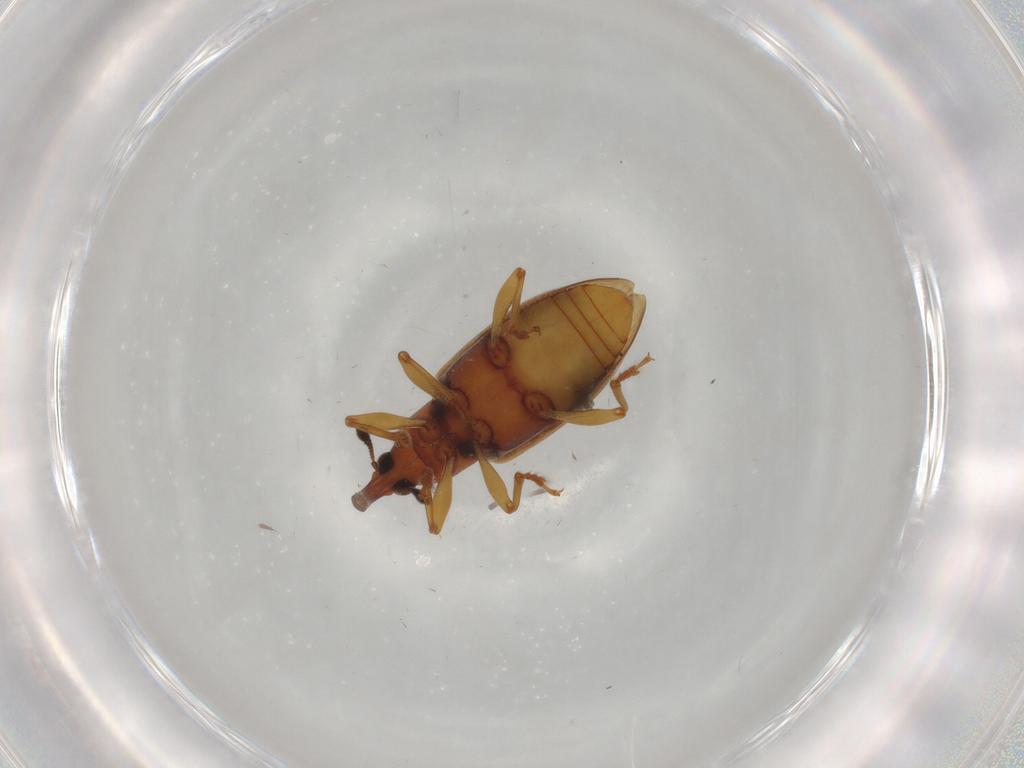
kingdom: Animalia
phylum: Arthropoda
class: Insecta
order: Coleoptera
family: Curculionidae
